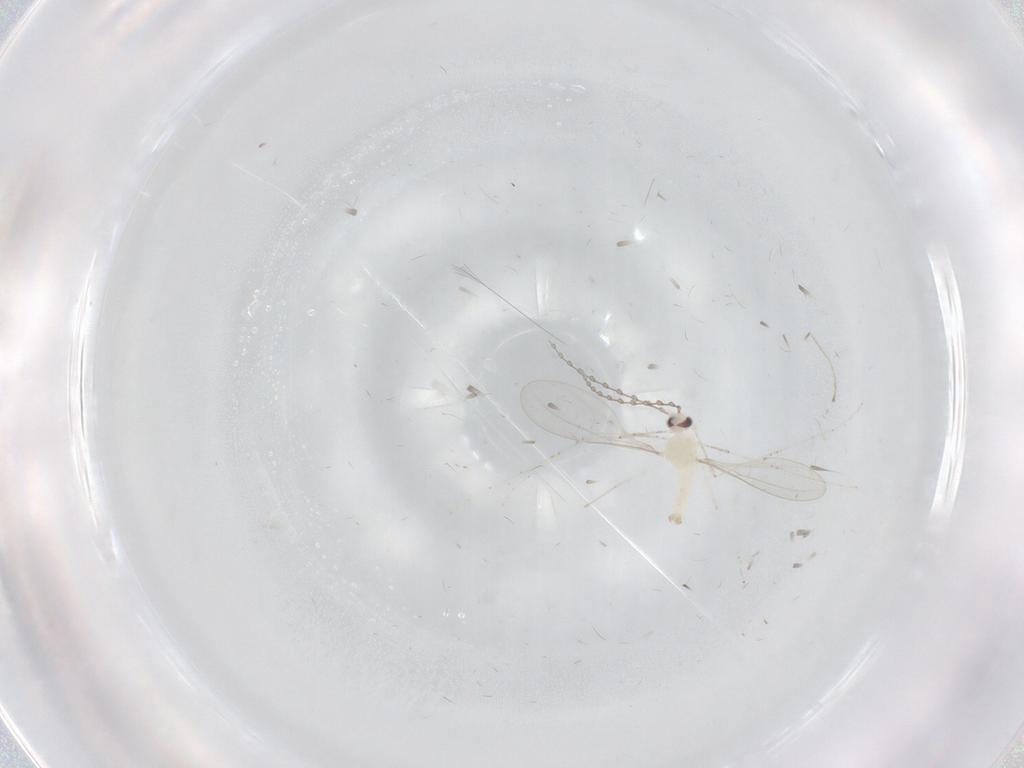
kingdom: Animalia
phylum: Arthropoda
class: Insecta
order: Diptera
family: Cecidomyiidae
